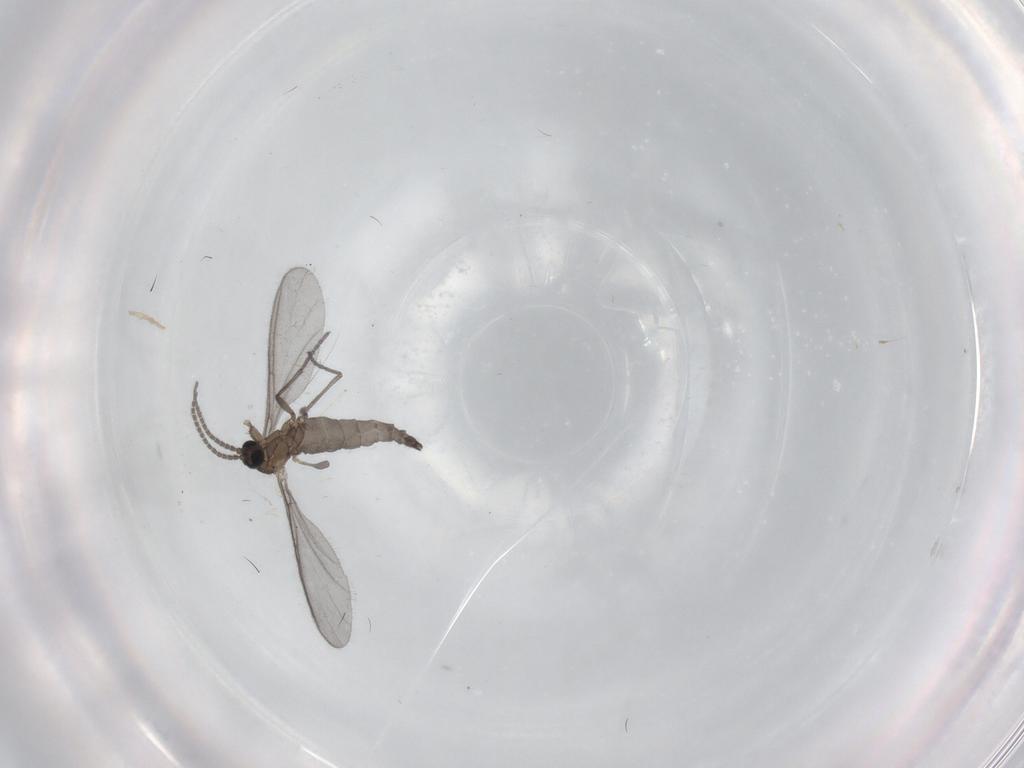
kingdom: Animalia
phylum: Arthropoda
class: Insecta
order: Diptera
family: Sciaridae
